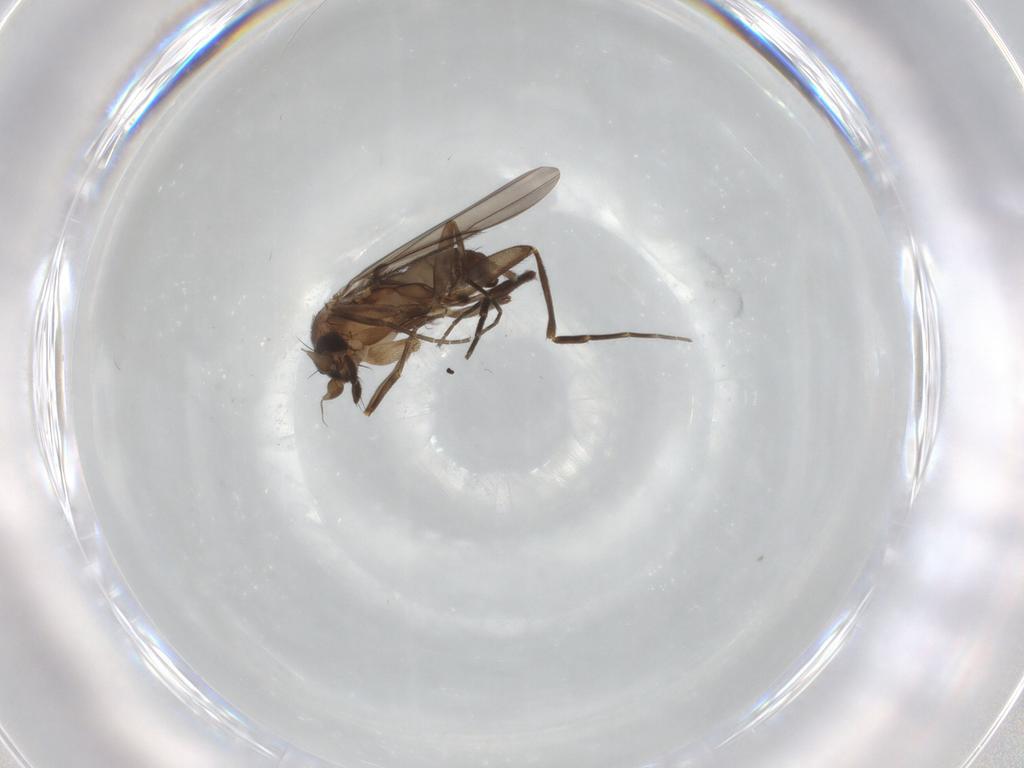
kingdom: Animalia
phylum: Arthropoda
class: Insecta
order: Diptera
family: Phoridae
